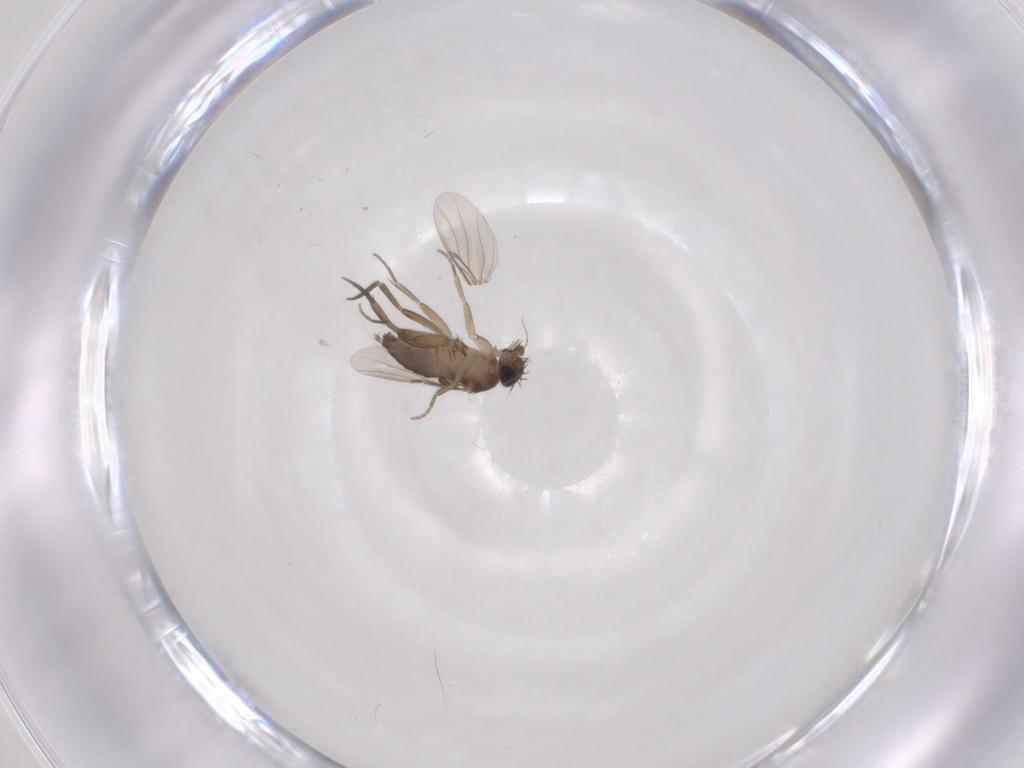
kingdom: Animalia
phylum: Arthropoda
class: Insecta
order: Diptera
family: Phoridae
